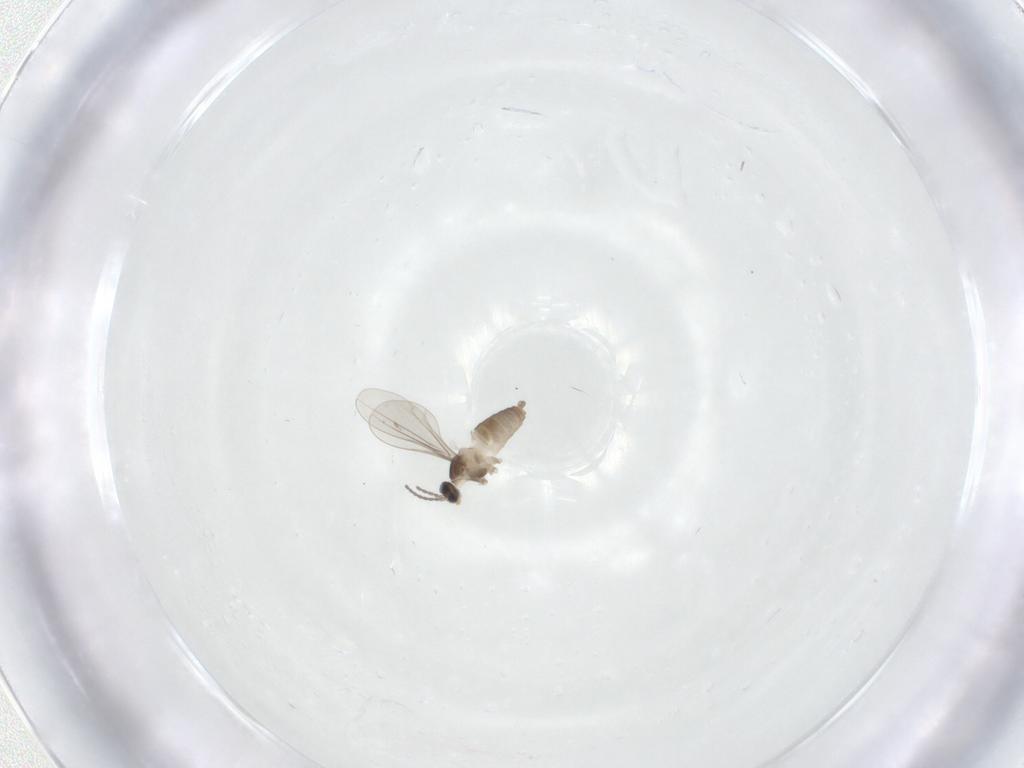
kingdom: Animalia
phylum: Arthropoda
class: Insecta
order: Diptera
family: Cecidomyiidae
